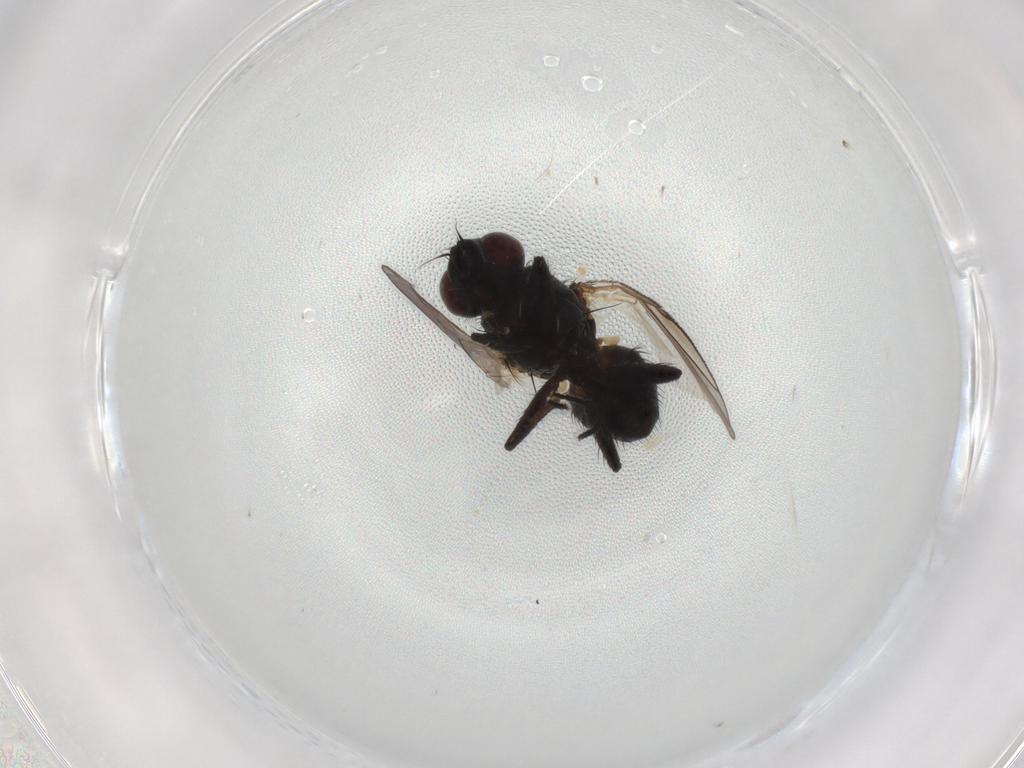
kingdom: Animalia
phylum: Arthropoda
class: Insecta
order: Diptera
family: Muscidae
